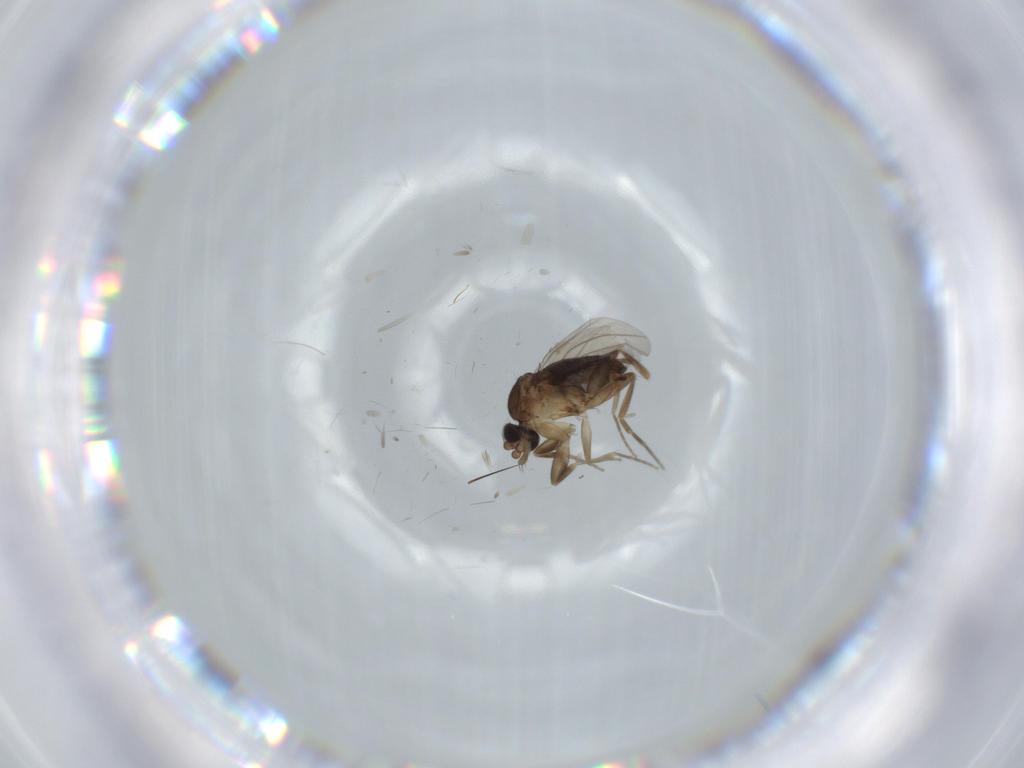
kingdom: Animalia
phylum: Arthropoda
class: Insecta
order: Diptera
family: Phoridae
